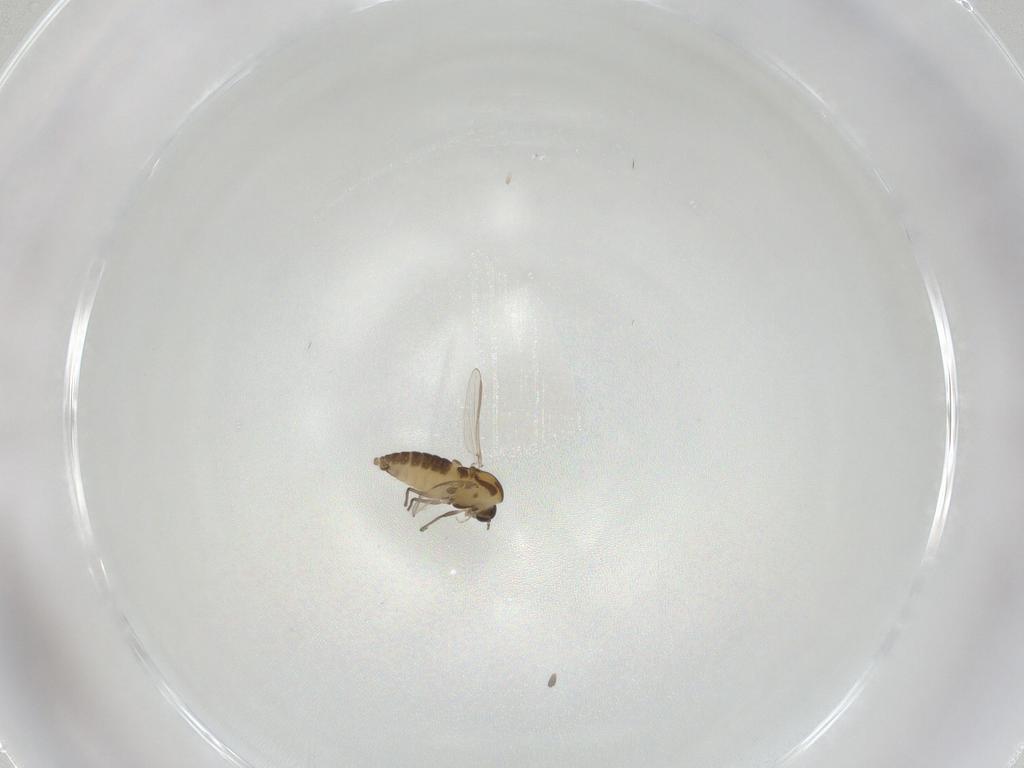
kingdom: Animalia
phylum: Arthropoda
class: Insecta
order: Diptera
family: Chironomidae
